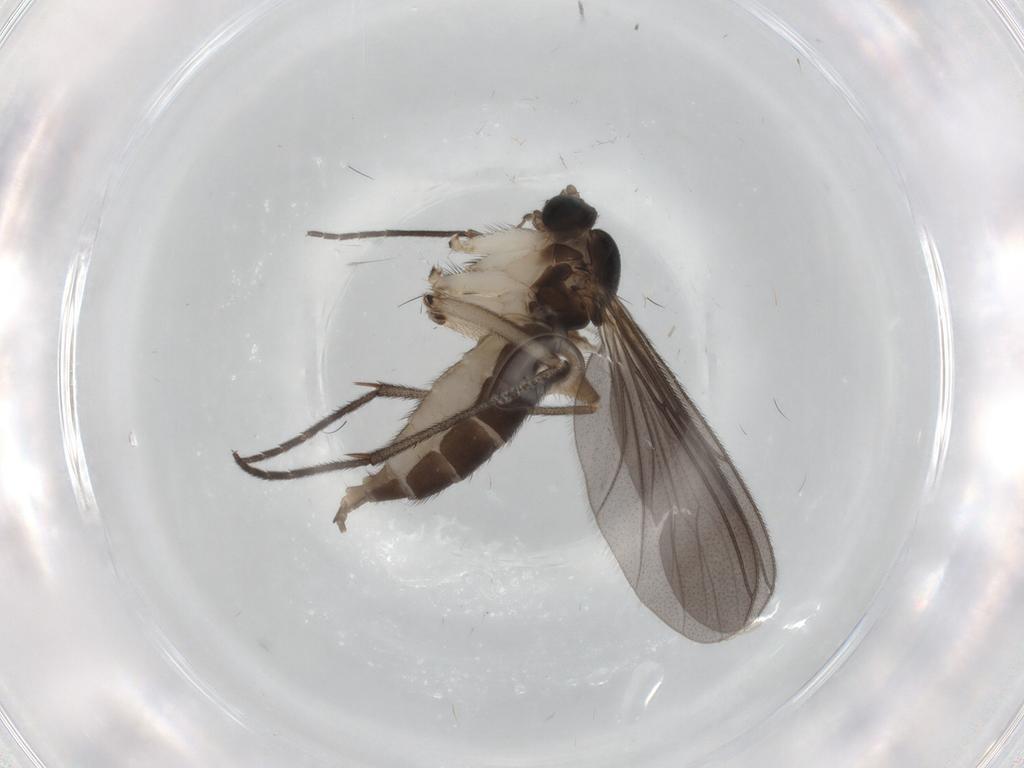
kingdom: Animalia
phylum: Arthropoda
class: Insecta
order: Diptera
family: Sciaridae
